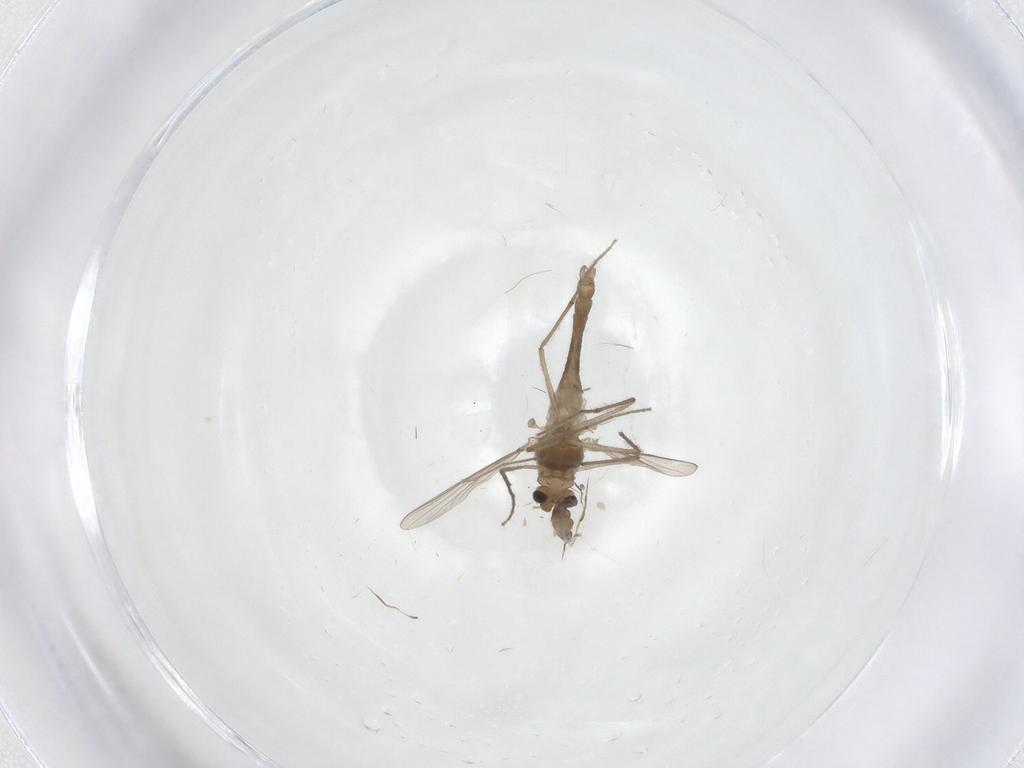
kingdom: Animalia
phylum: Arthropoda
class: Insecta
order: Diptera
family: Chironomidae
